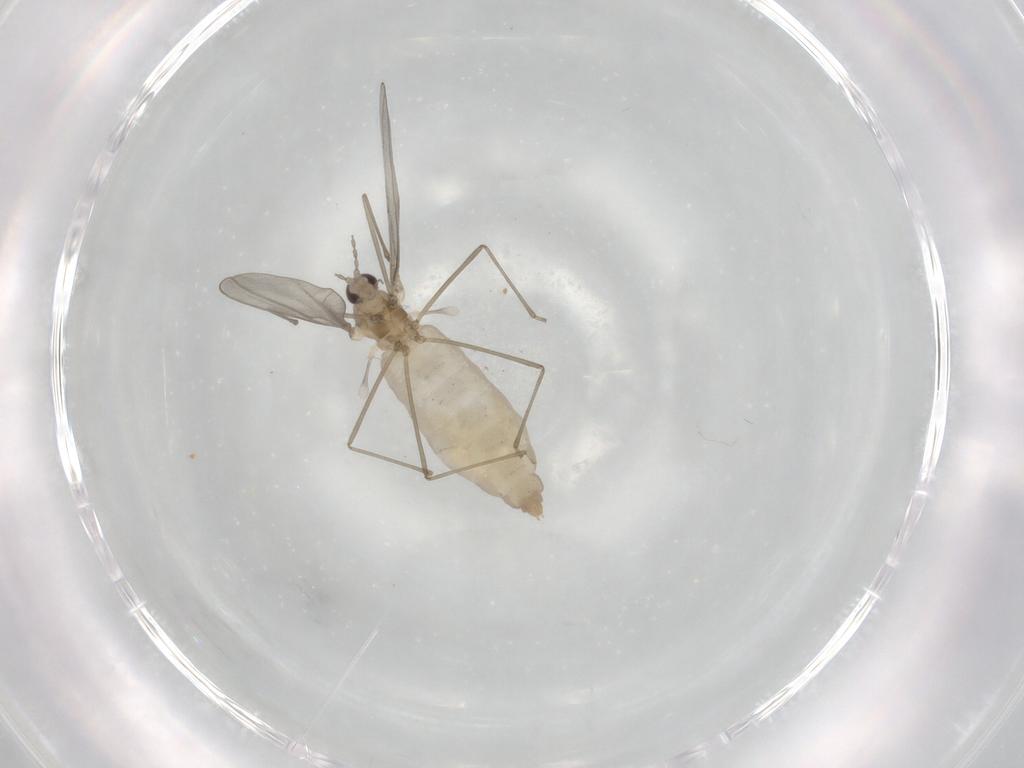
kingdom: Animalia
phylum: Arthropoda
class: Insecta
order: Diptera
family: Cecidomyiidae
